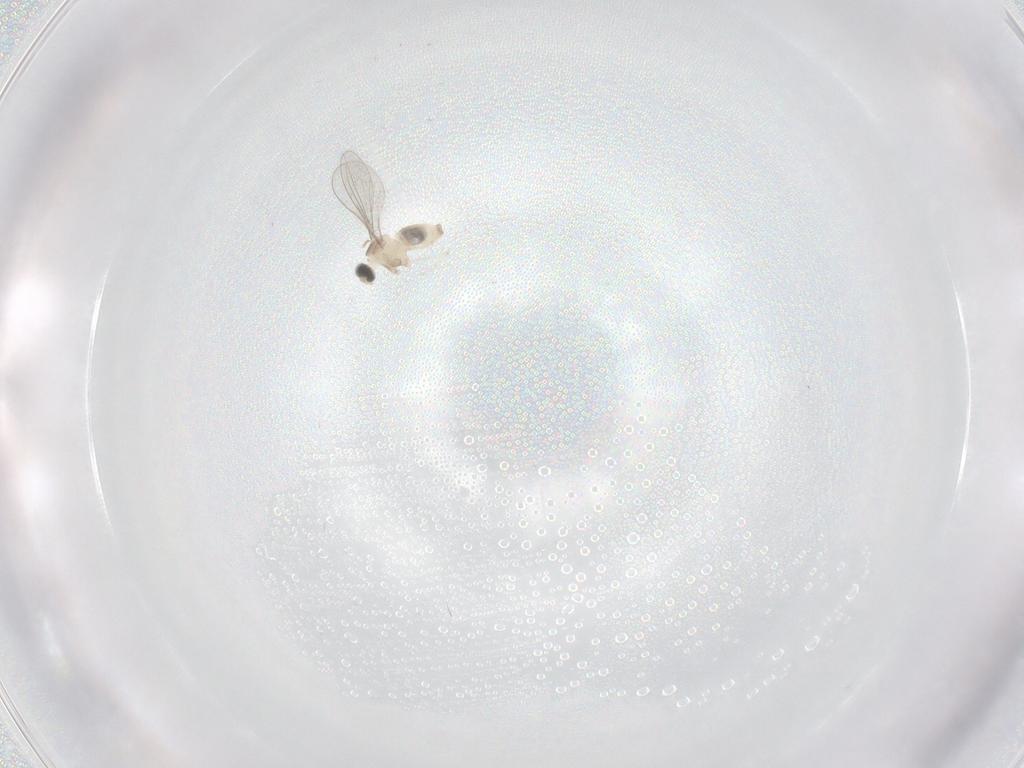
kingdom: Animalia
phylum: Arthropoda
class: Insecta
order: Diptera
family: Cecidomyiidae
